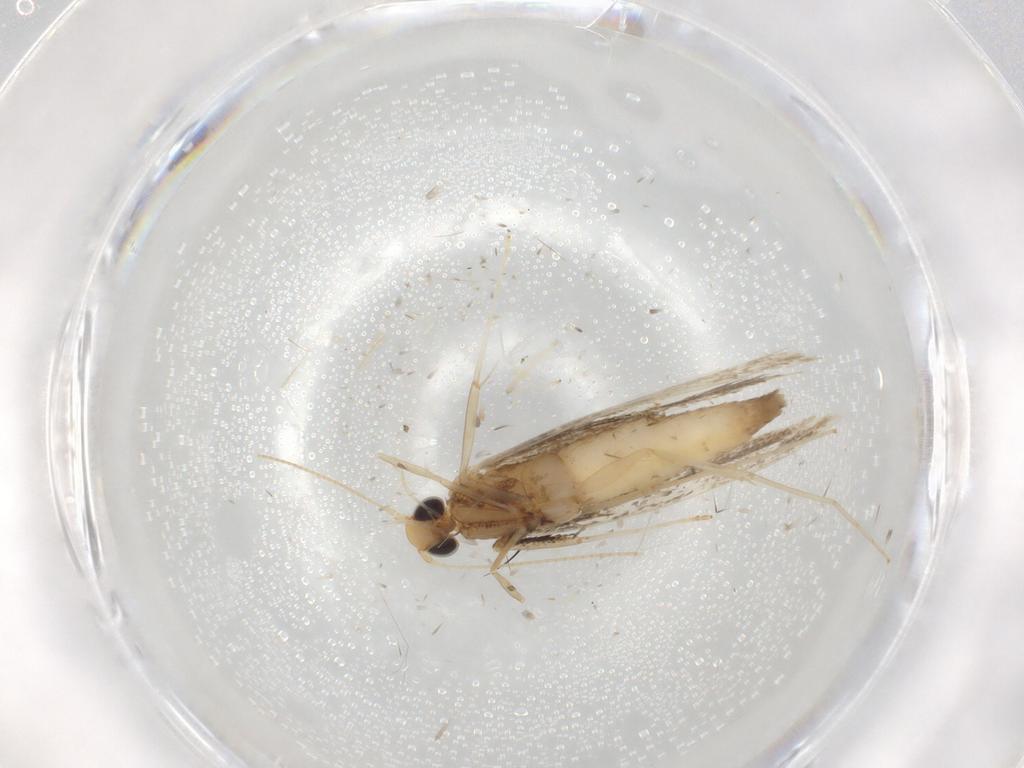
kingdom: Animalia
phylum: Arthropoda
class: Insecta
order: Lepidoptera
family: Gracillariidae
